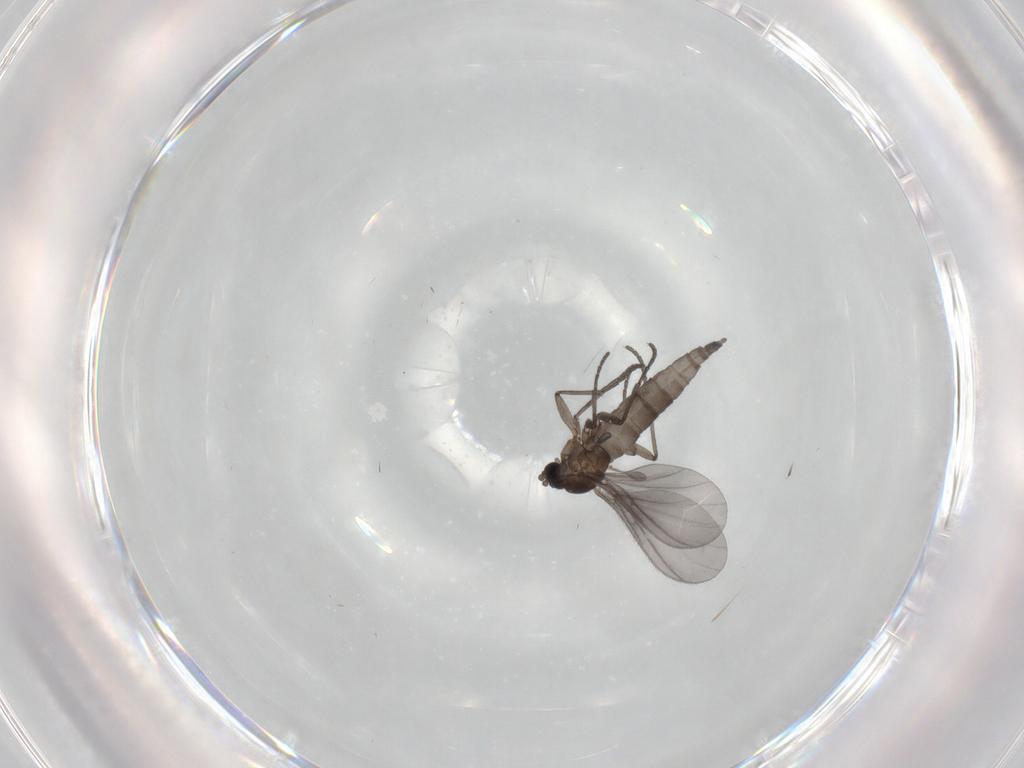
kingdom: Animalia
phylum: Arthropoda
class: Insecta
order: Diptera
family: Sciaridae
